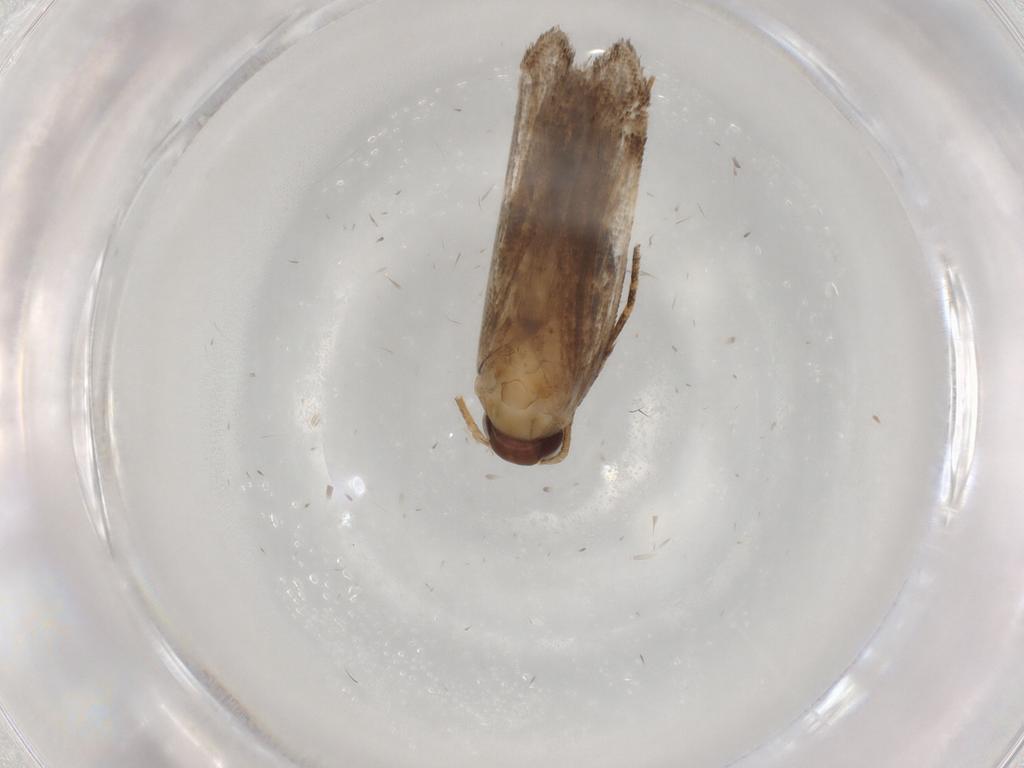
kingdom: Animalia
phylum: Arthropoda
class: Insecta
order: Lepidoptera
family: Gelechiidae
